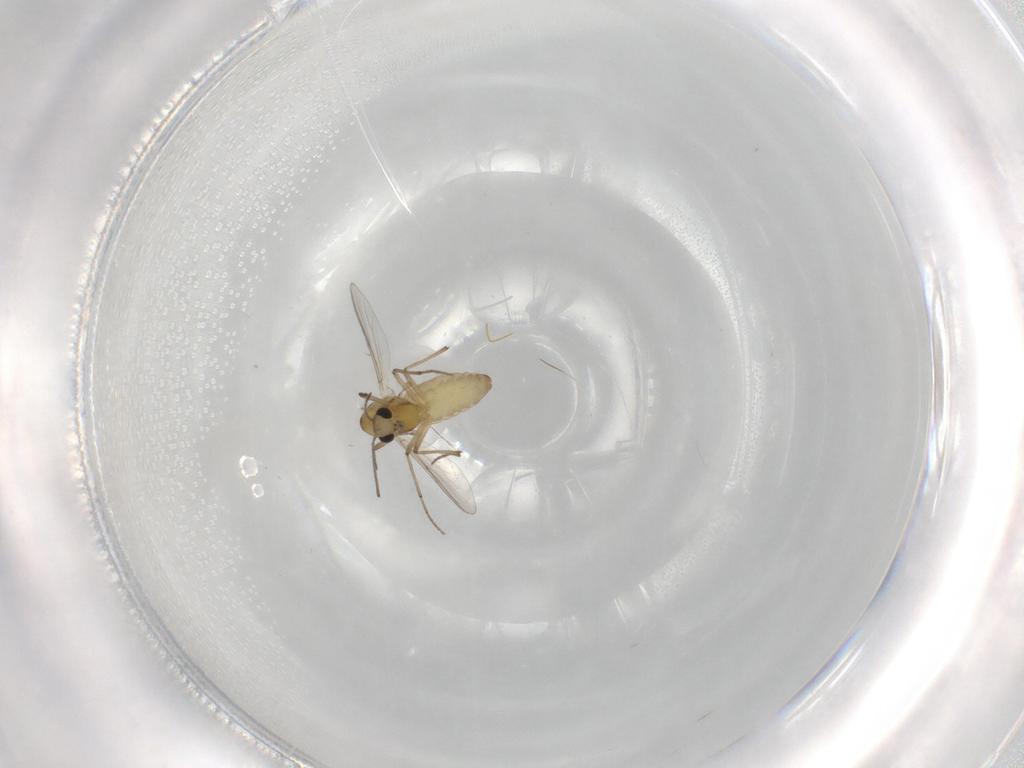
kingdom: Animalia
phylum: Arthropoda
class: Insecta
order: Diptera
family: Chironomidae
